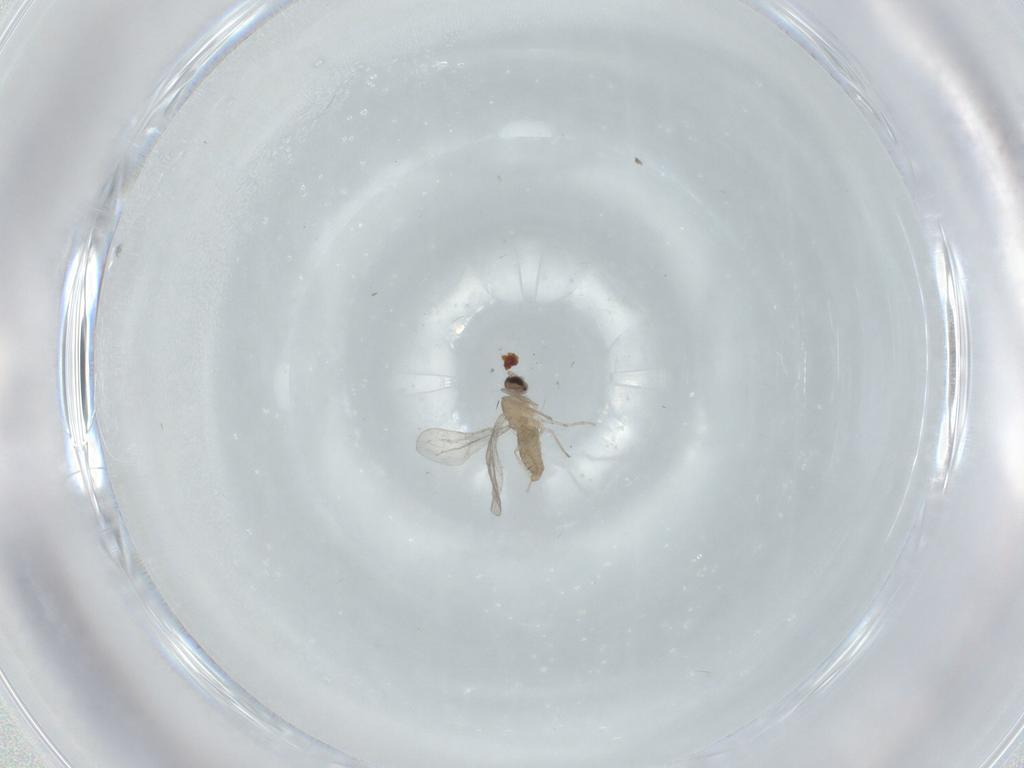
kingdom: Animalia
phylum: Arthropoda
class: Insecta
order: Diptera
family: Cecidomyiidae
